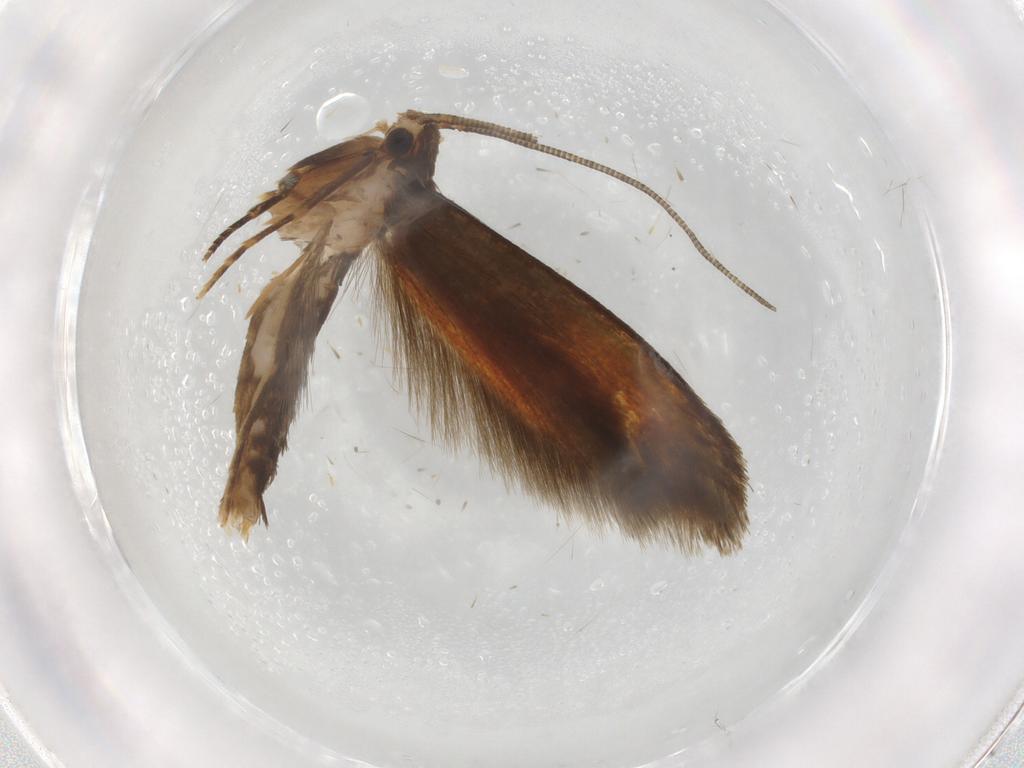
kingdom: Animalia
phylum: Arthropoda
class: Insecta
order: Lepidoptera
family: Tineidae
